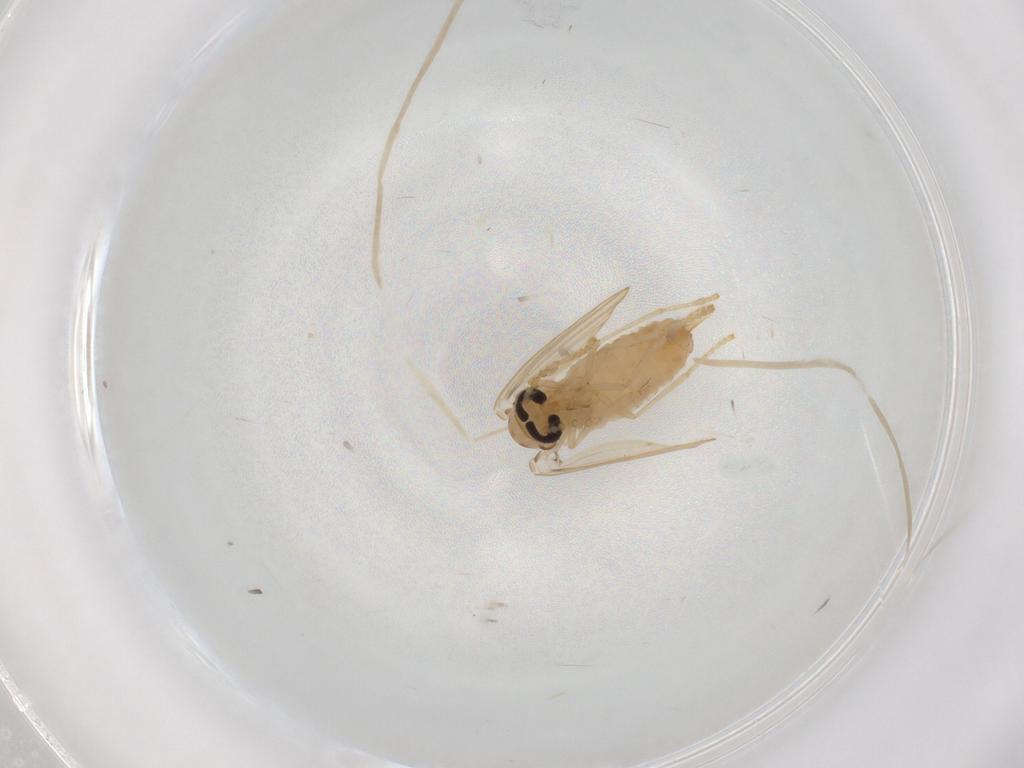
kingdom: Animalia
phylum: Arthropoda
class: Insecta
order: Diptera
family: Psychodidae
